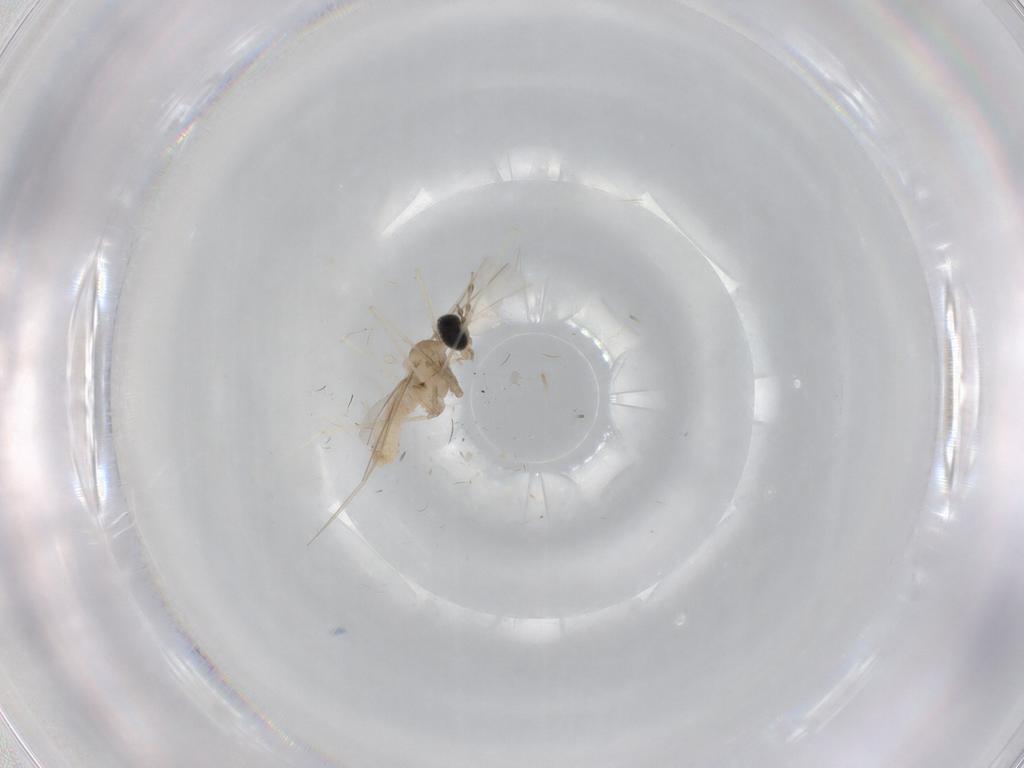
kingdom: Animalia
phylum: Arthropoda
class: Insecta
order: Diptera
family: Cecidomyiidae
